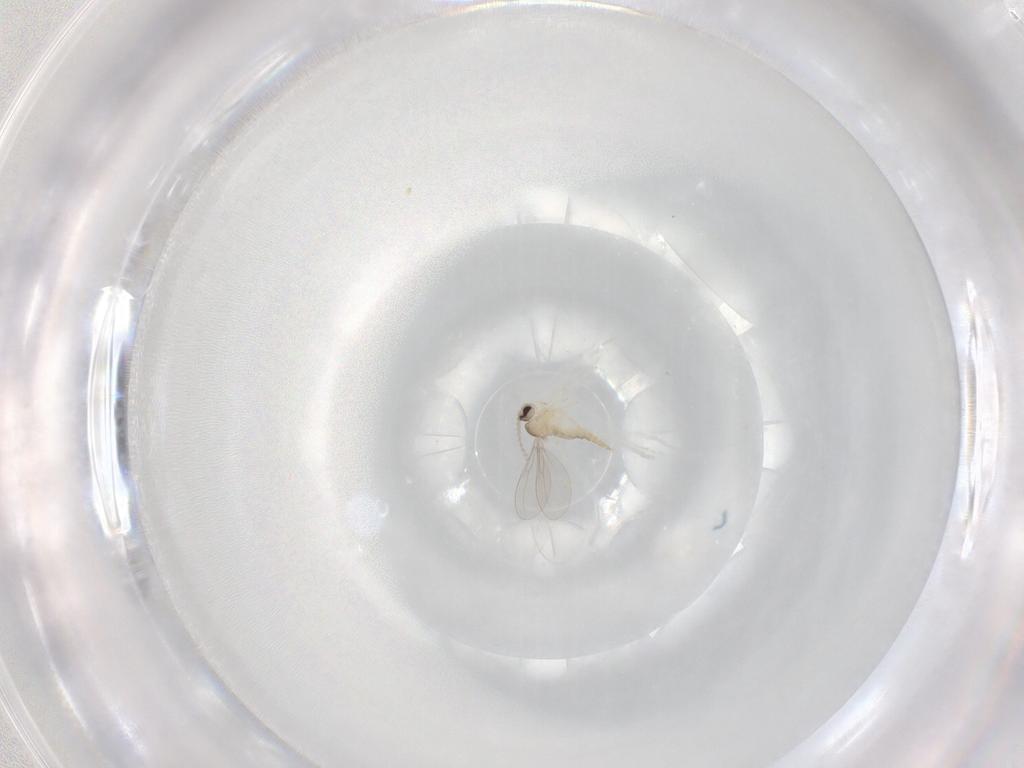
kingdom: Animalia
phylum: Arthropoda
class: Insecta
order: Diptera
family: Cecidomyiidae
